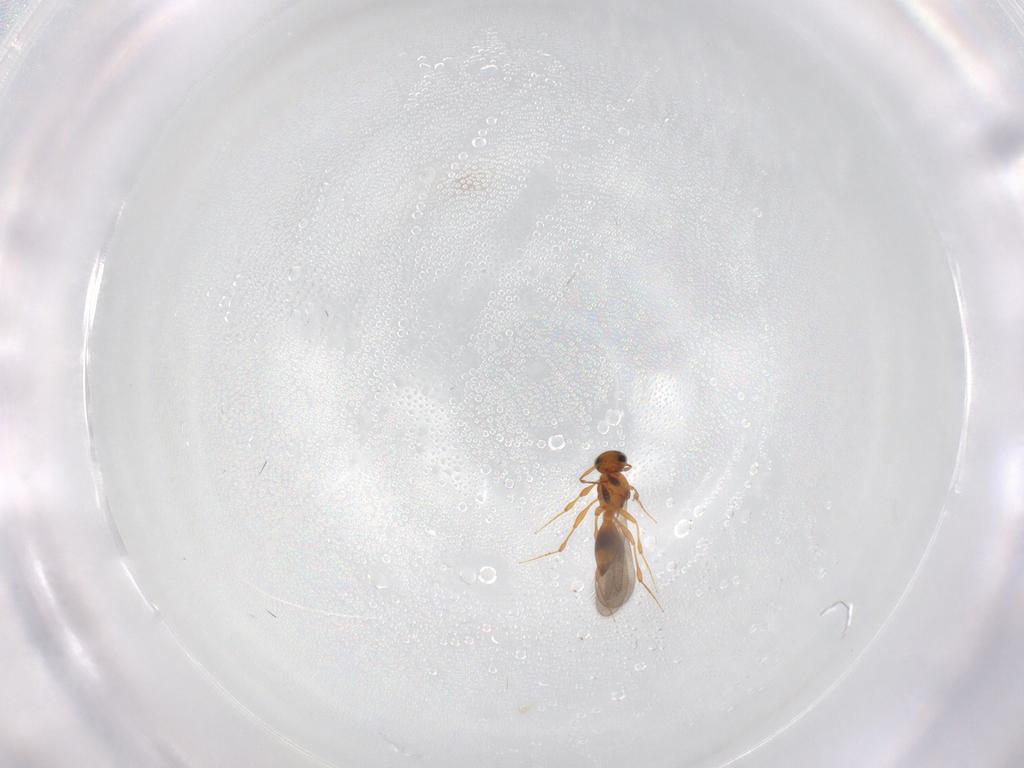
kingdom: Animalia
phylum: Arthropoda
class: Insecta
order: Hymenoptera
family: Platygastridae
